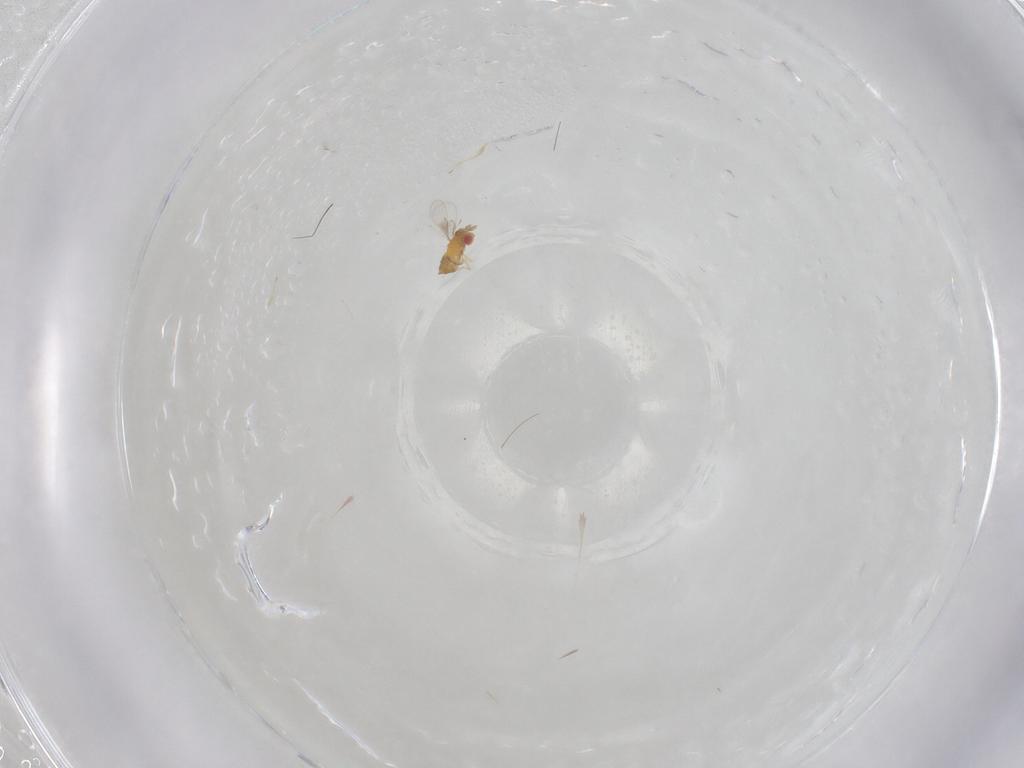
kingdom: Animalia
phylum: Arthropoda
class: Insecta
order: Hymenoptera
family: Trichogrammatidae
